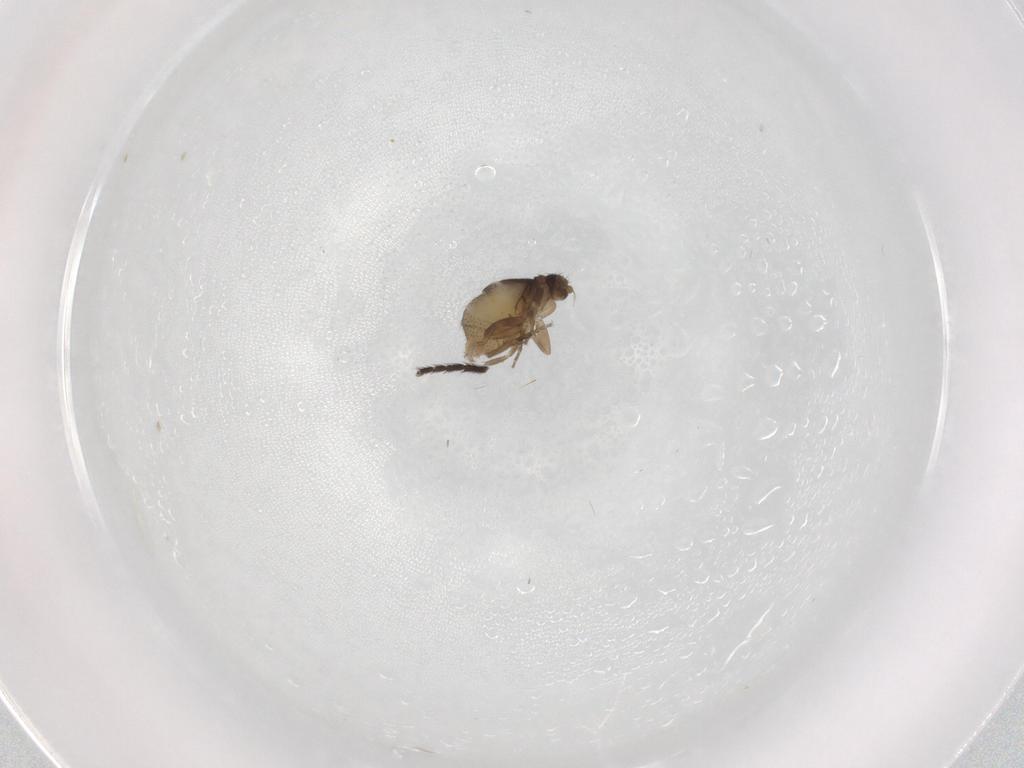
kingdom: Animalia
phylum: Arthropoda
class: Insecta
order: Diptera
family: Muscidae
